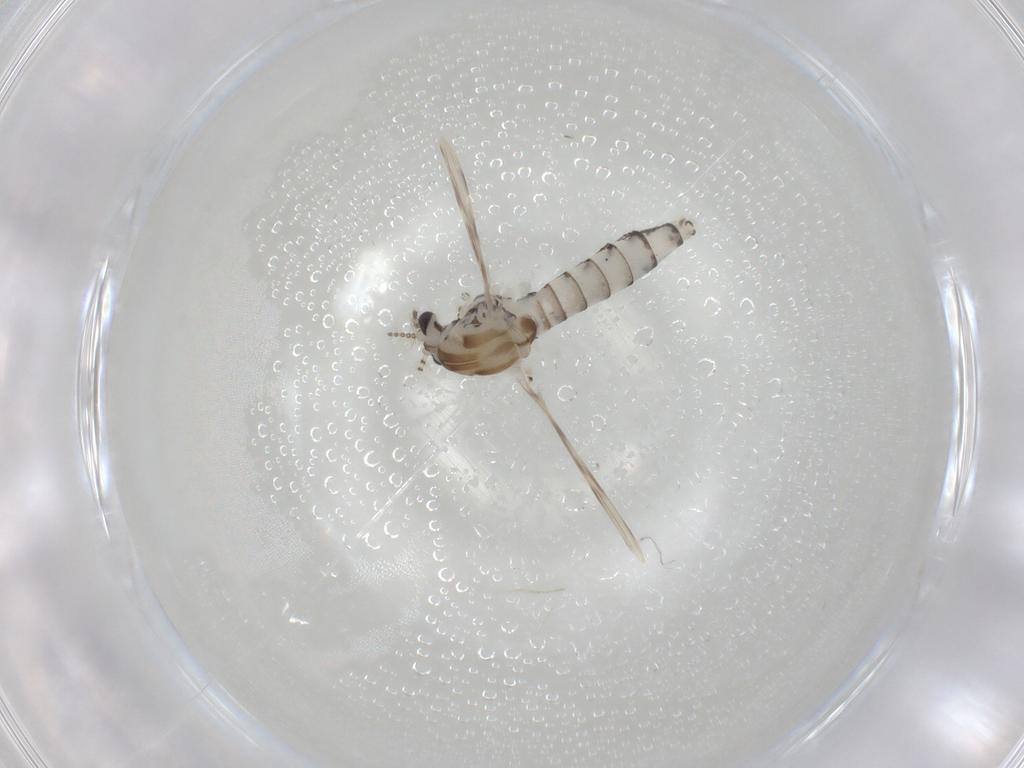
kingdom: Animalia
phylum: Arthropoda
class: Insecta
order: Diptera
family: Chaoboridae
